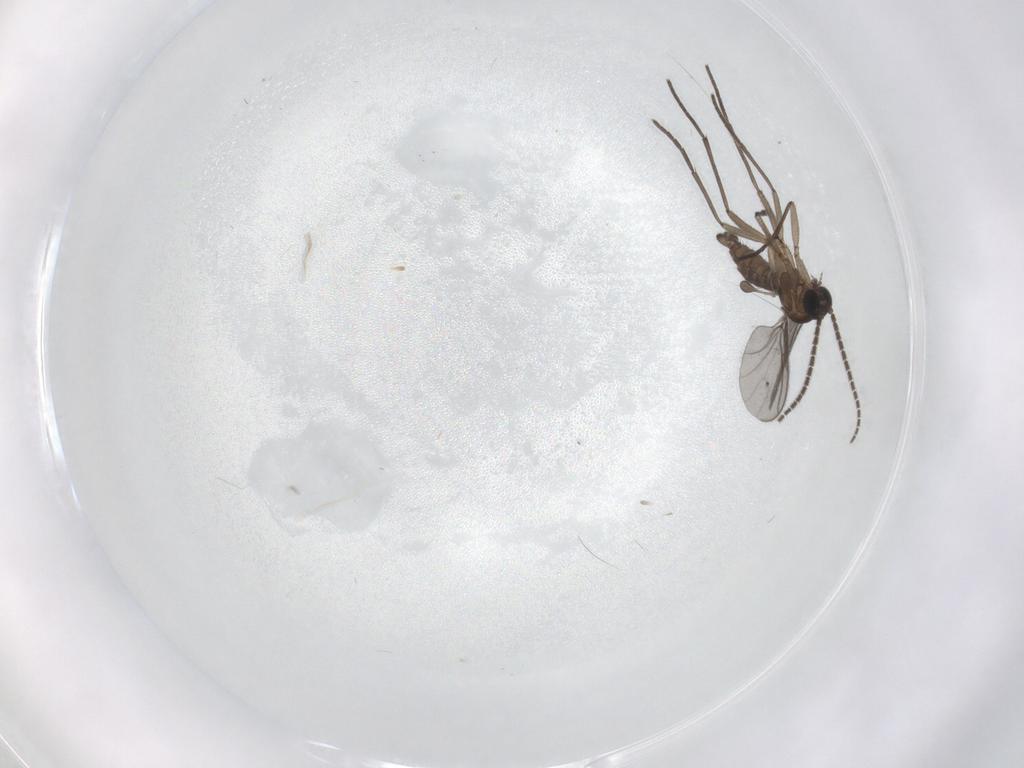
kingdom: Animalia
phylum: Arthropoda
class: Insecta
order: Diptera
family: Sciaridae
